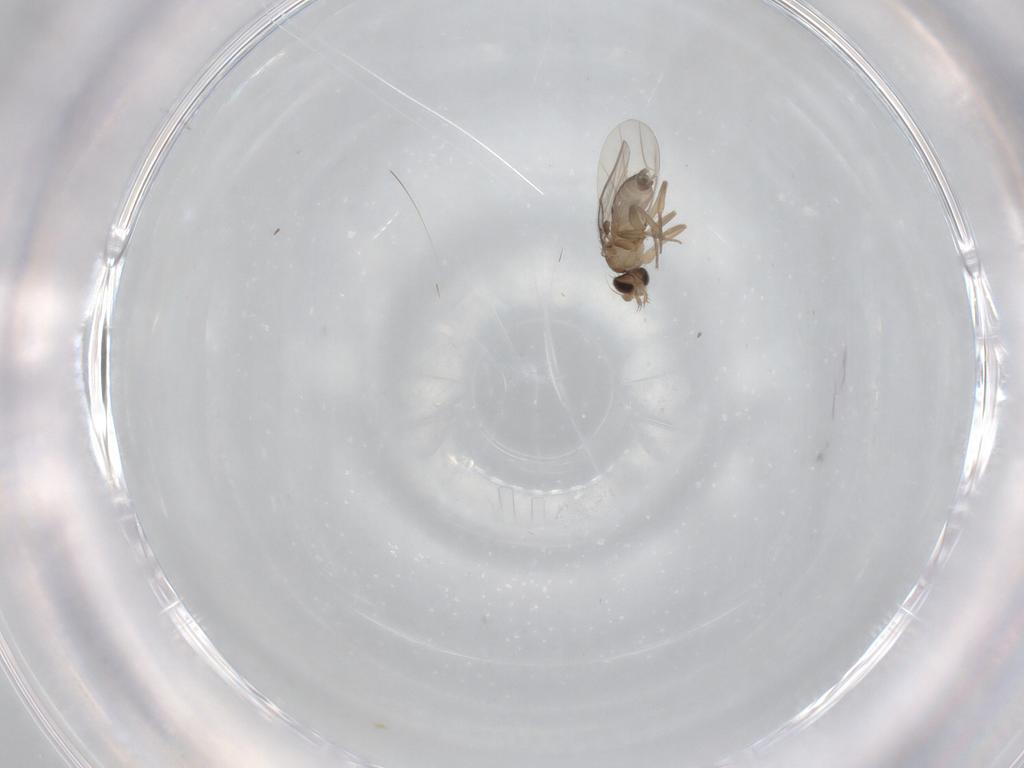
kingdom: Animalia
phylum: Arthropoda
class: Insecta
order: Diptera
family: Phoridae
